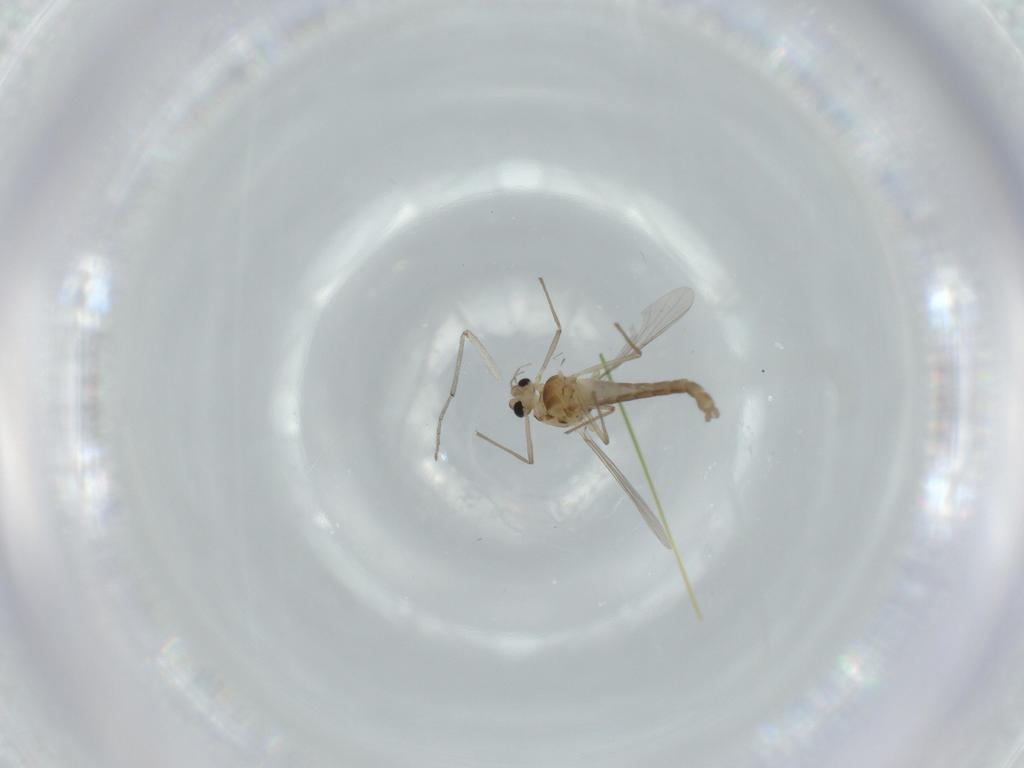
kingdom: Animalia
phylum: Arthropoda
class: Insecta
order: Diptera
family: Chironomidae
